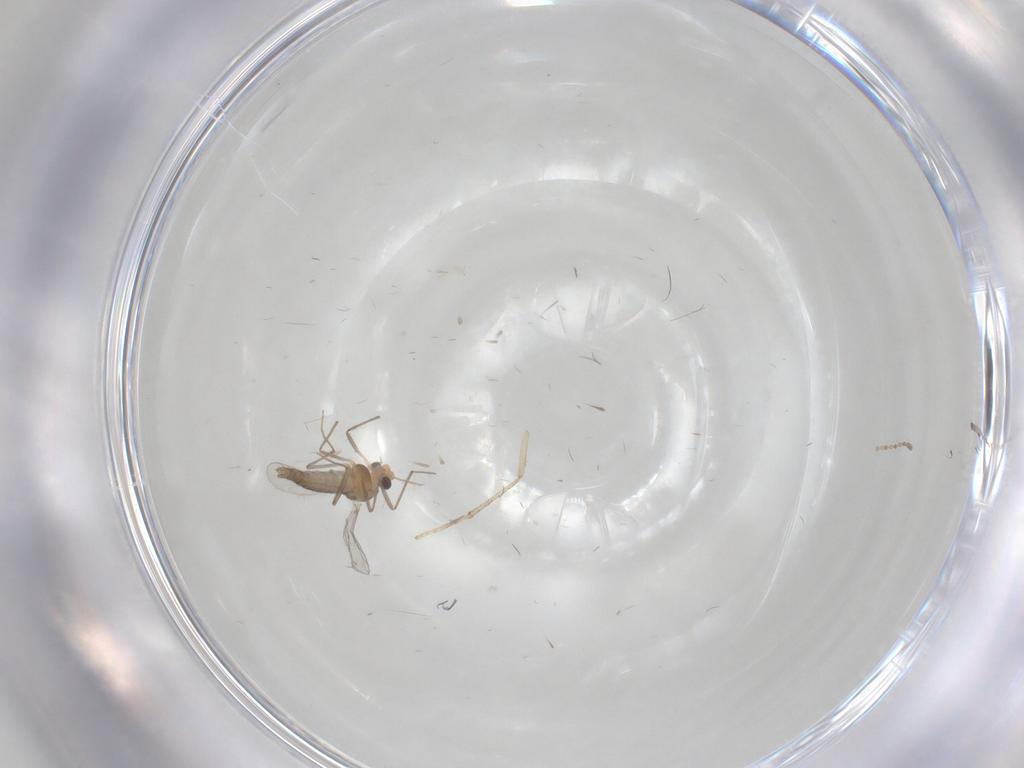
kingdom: Animalia
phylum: Arthropoda
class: Insecta
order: Diptera
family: Chironomidae
